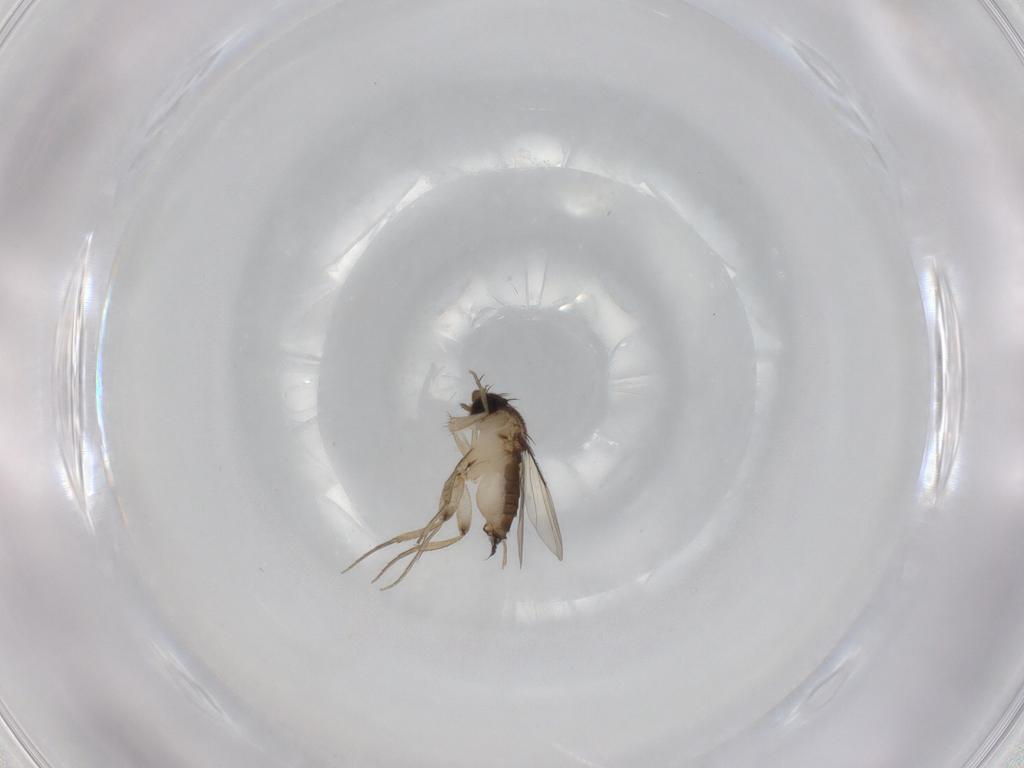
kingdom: Animalia
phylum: Arthropoda
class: Insecta
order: Diptera
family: Phoridae
